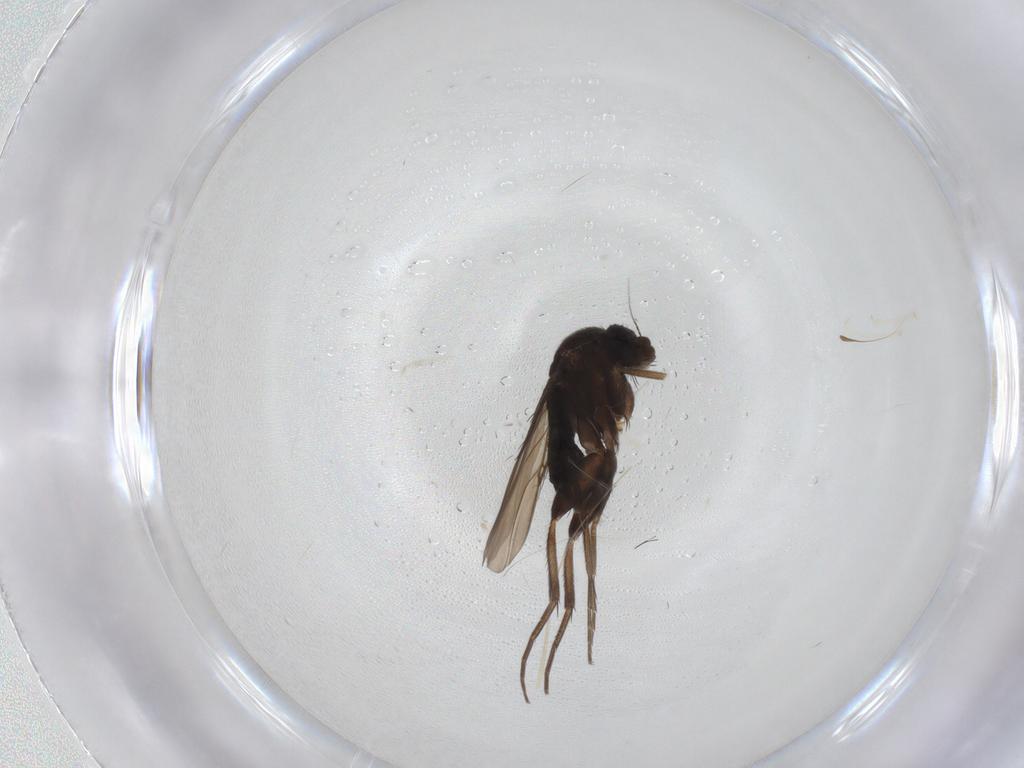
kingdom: Animalia
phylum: Arthropoda
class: Insecta
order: Diptera
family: Phoridae
